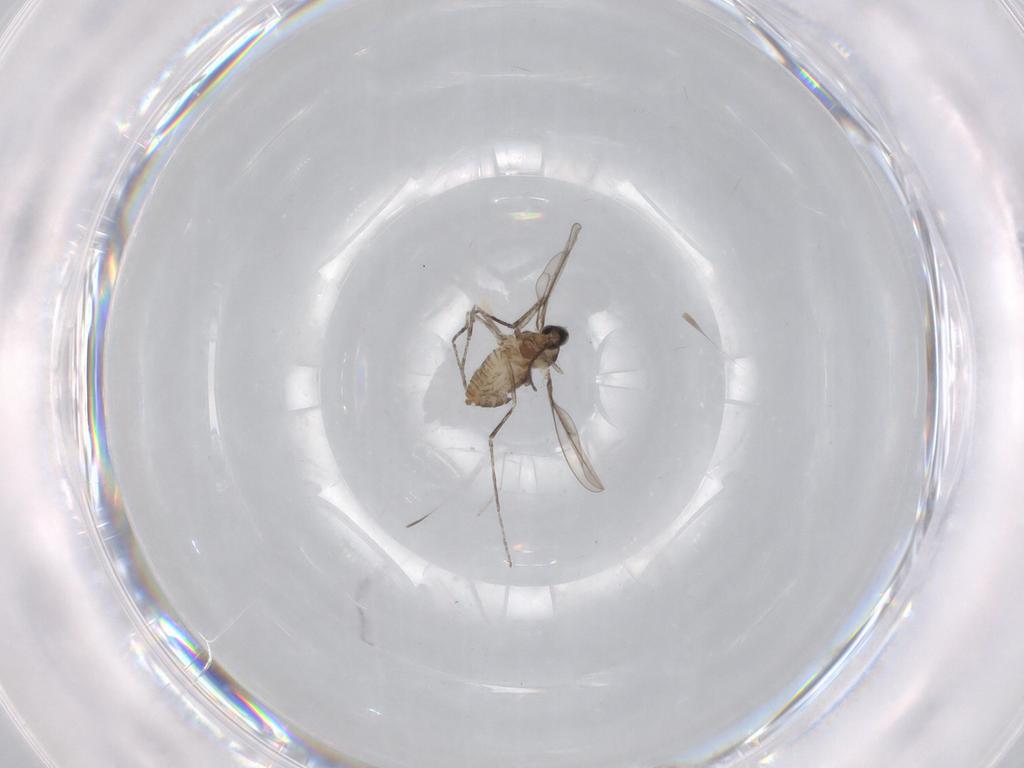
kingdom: Animalia
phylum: Arthropoda
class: Insecta
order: Diptera
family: Cecidomyiidae
